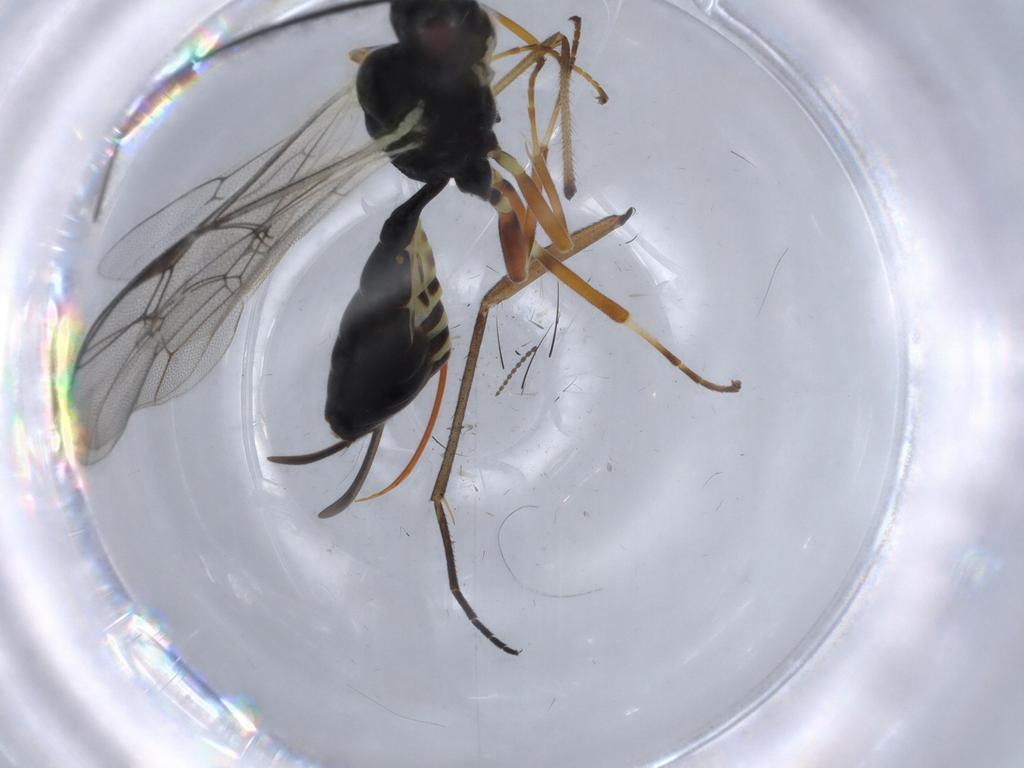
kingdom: Animalia
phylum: Arthropoda
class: Insecta
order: Hymenoptera
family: Ichneumonidae
